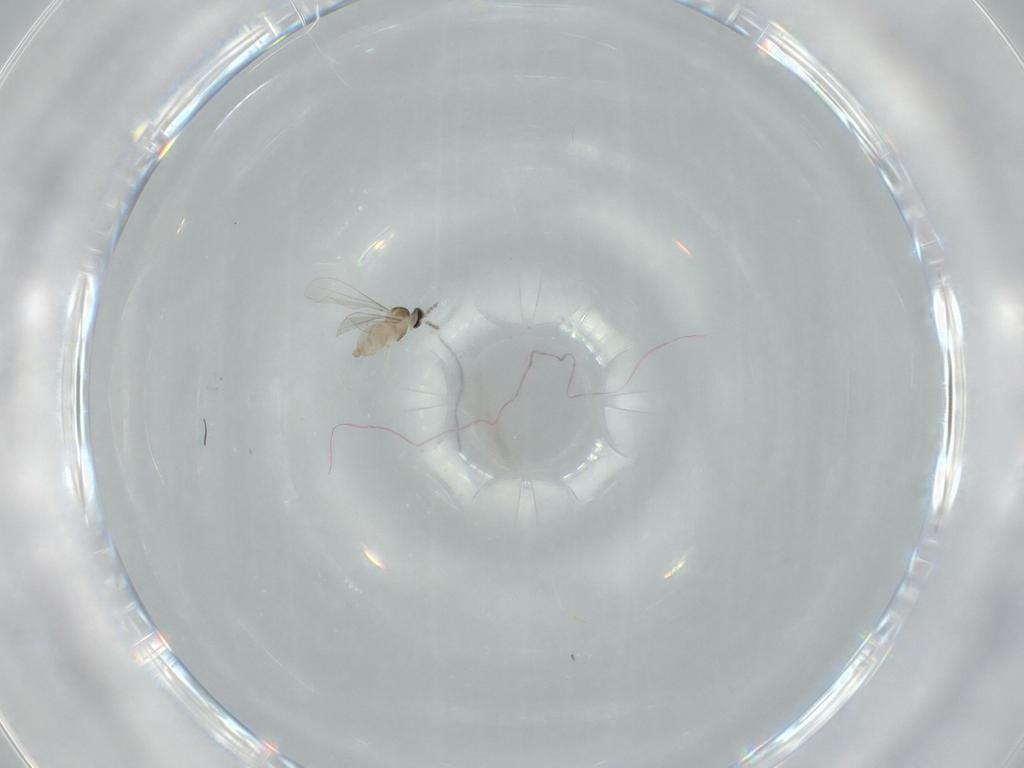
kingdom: Animalia
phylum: Arthropoda
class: Insecta
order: Diptera
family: Cecidomyiidae
